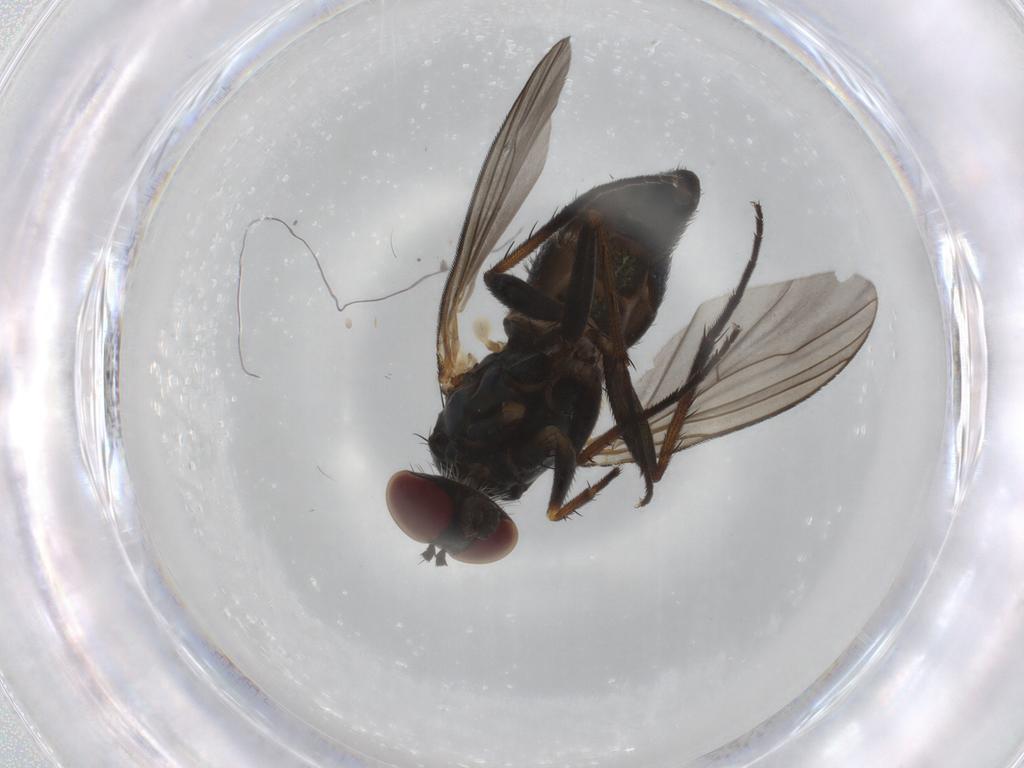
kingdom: Animalia
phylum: Arthropoda
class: Insecta
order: Diptera
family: Dolichopodidae
